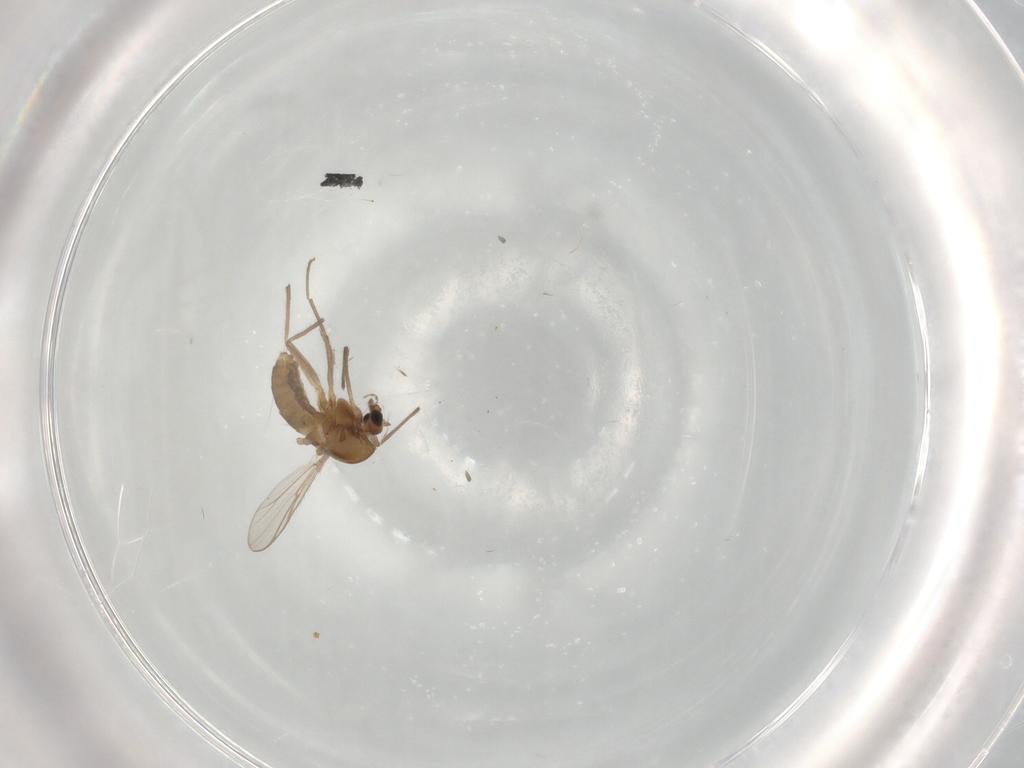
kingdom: Animalia
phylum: Arthropoda
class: Insecta
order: Diptera
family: Chironomidae
